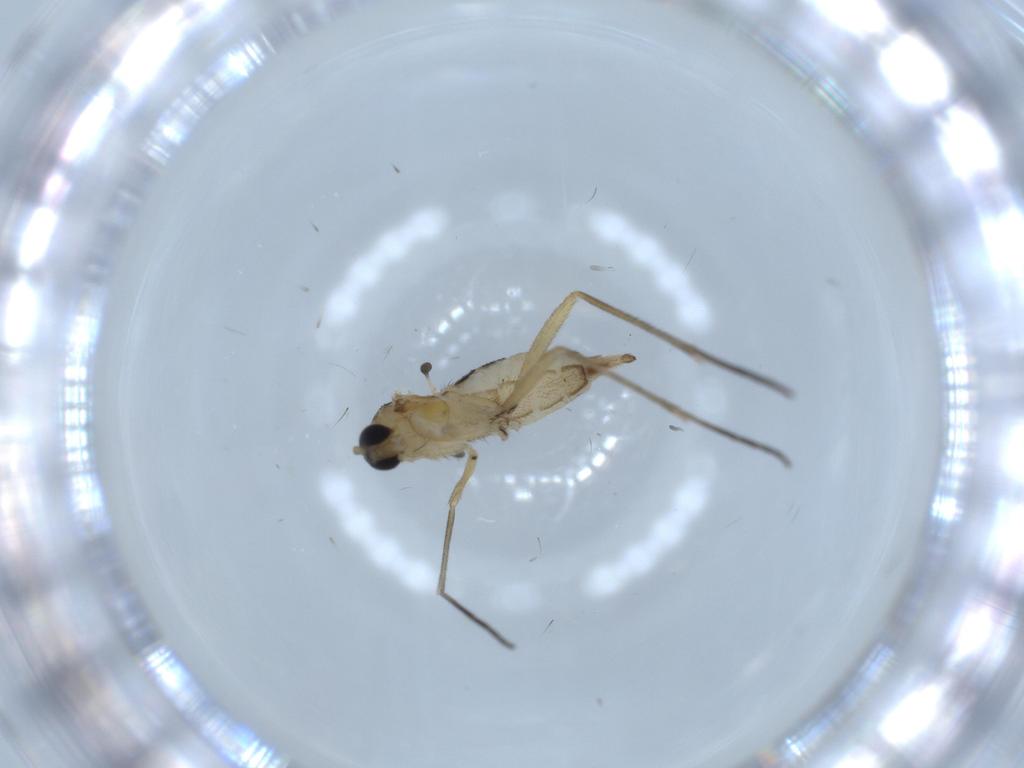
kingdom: Animalia
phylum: Arthropoda
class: Insecta
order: Diptera
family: Sciaridae
